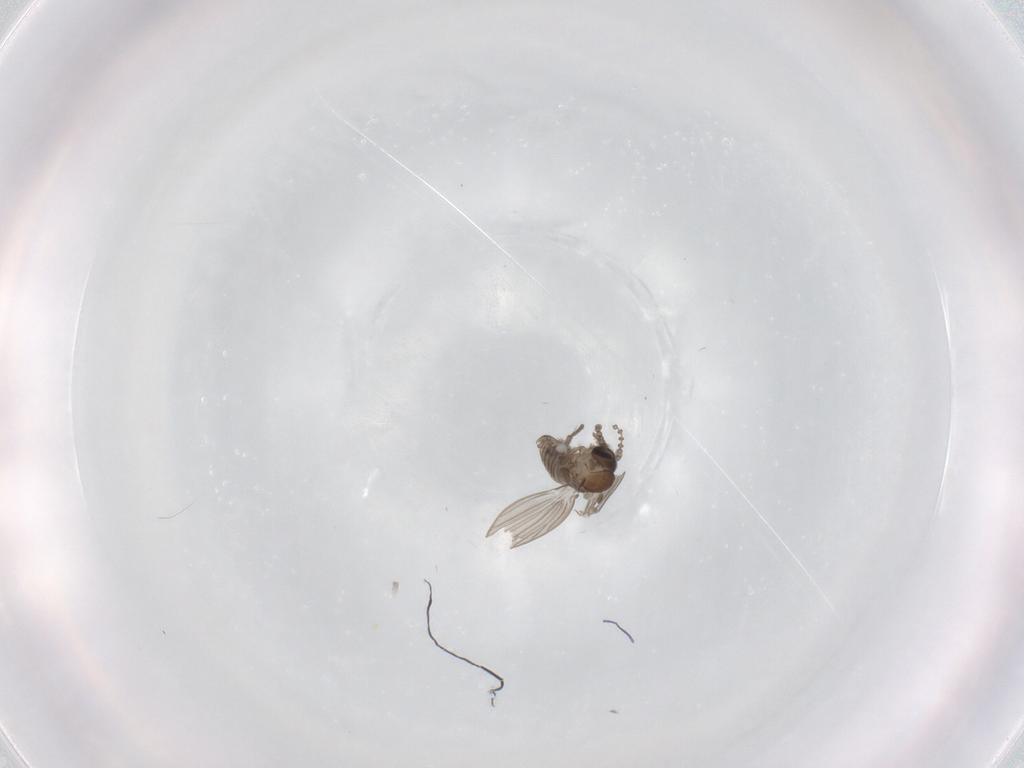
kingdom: Animalia
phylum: Arthropoda
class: Insecta
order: Diptera
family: Psychodidae
